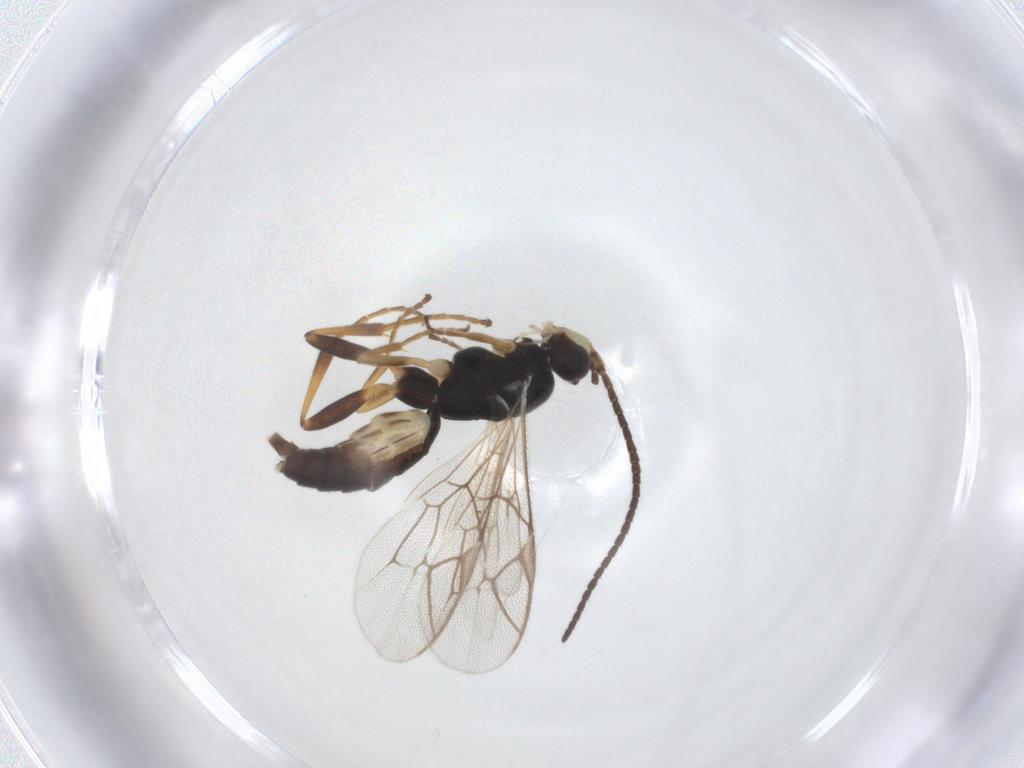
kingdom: Animalia
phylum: Arthropoda
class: Insecta
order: Hymenoptera
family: Ichneumonidae
